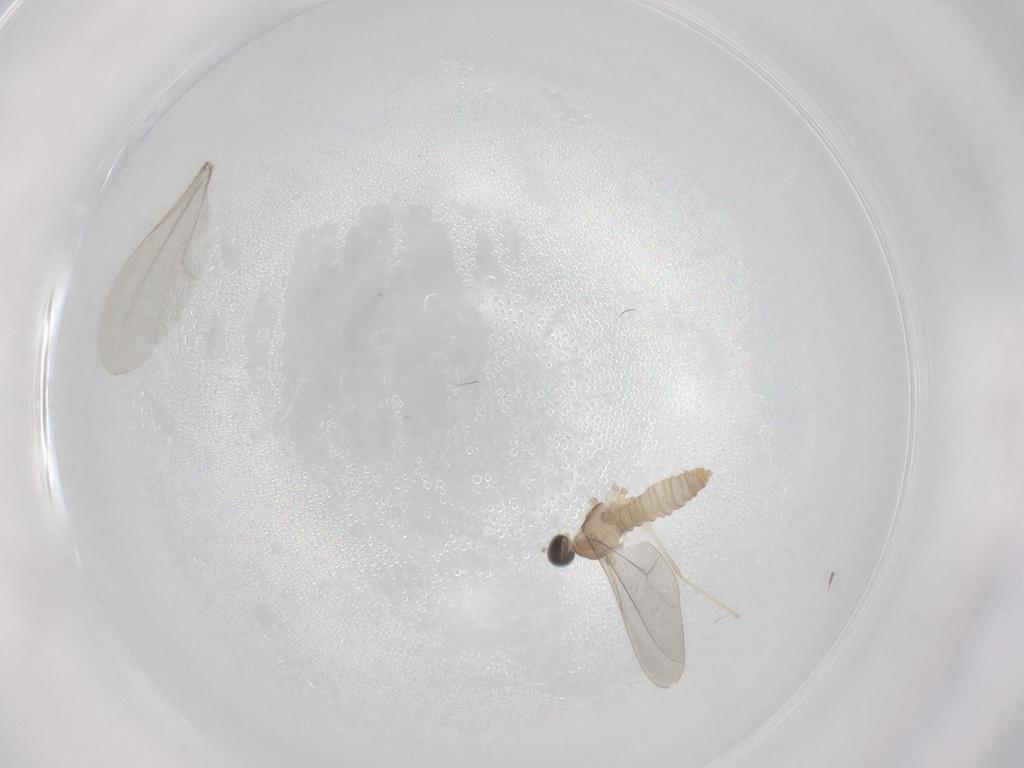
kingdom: Animalia
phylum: Arthropoda
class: Insecta
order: Diptera
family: Cecidomyiidae
